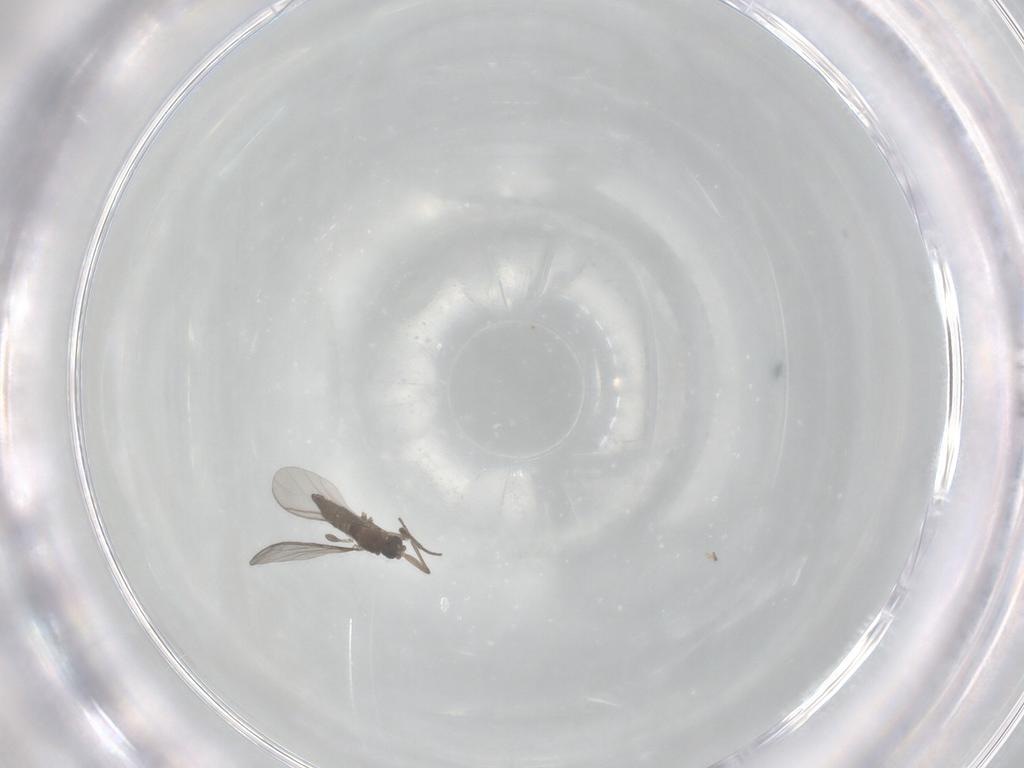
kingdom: Animalia
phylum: Arthropoda
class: Insecta
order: Diptera
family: Sciaridae
